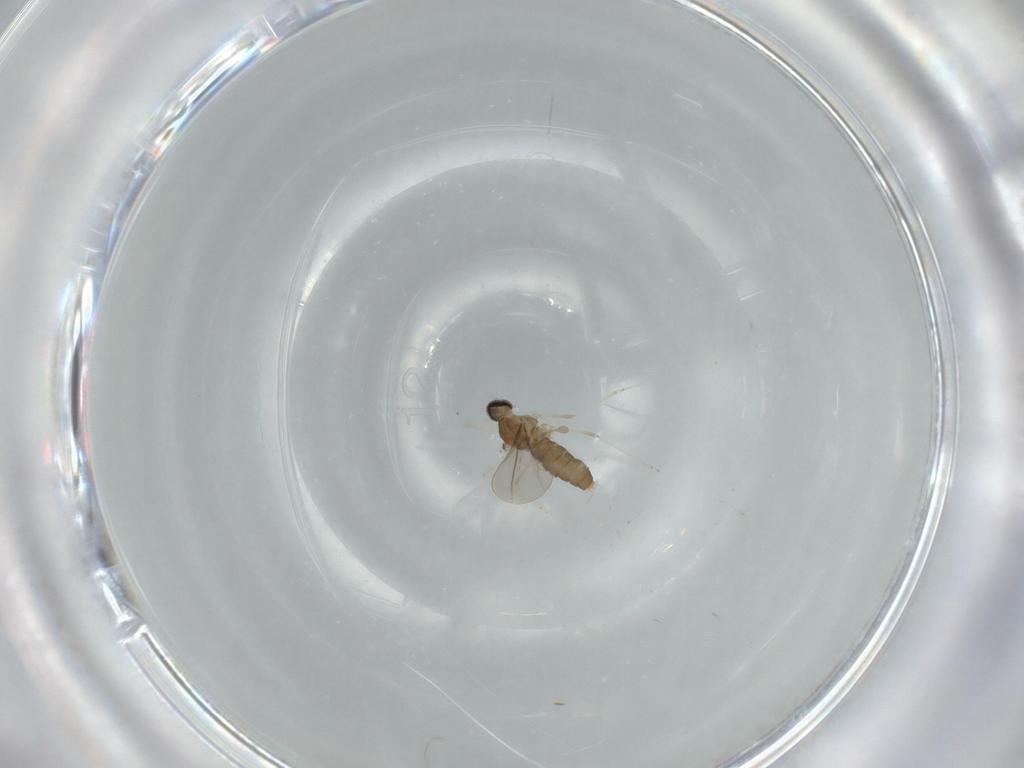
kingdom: Animalia
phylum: Arthropoda
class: Insecta
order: Diptera
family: Cecidomyiidae
